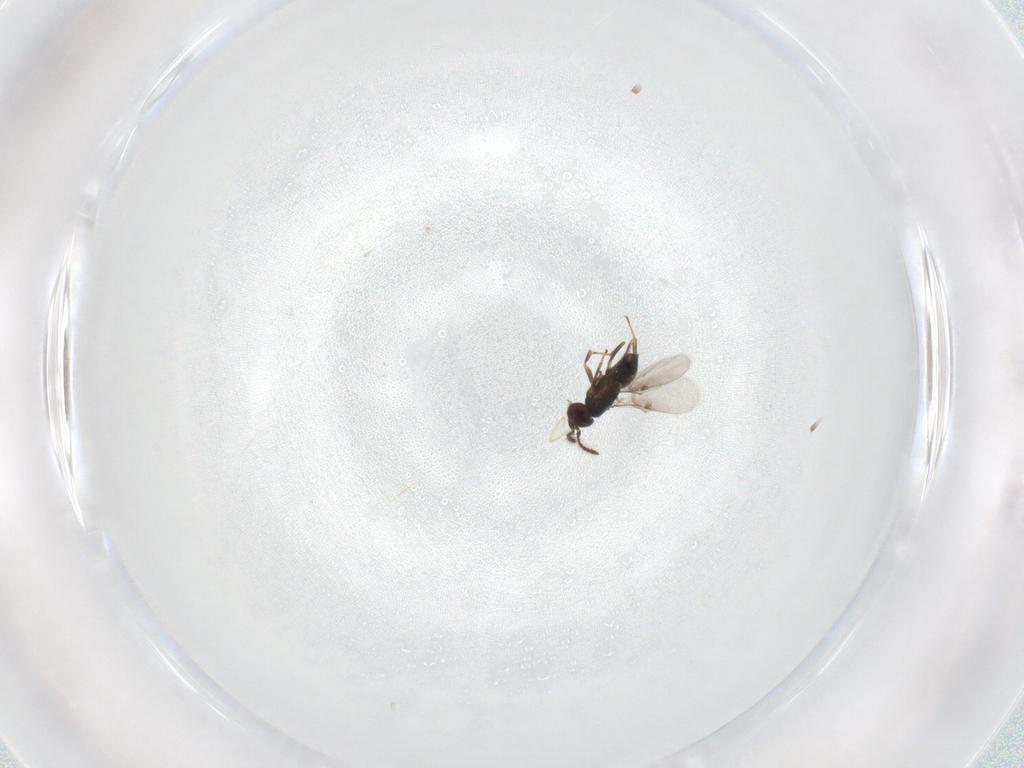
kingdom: Animalia
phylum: Arthropoda
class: Insecta
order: Hymenoptera
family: Encyrtidae
